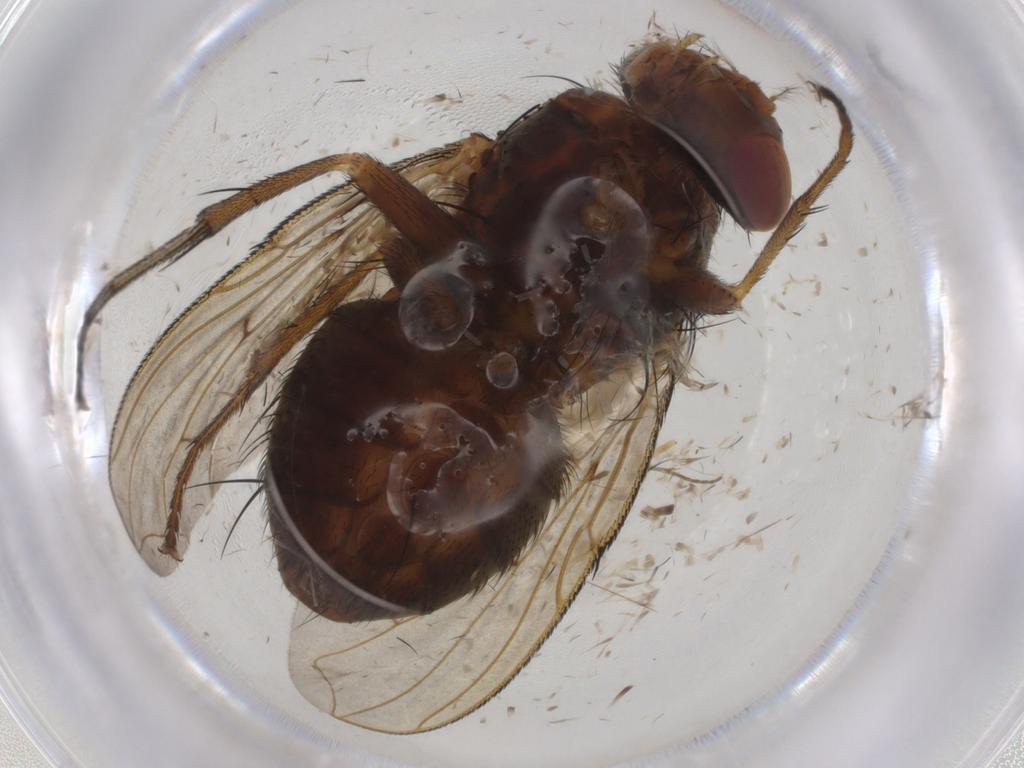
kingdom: Animalia
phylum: Arthropoda
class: Insecta
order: Diptera
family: Tachinidae
